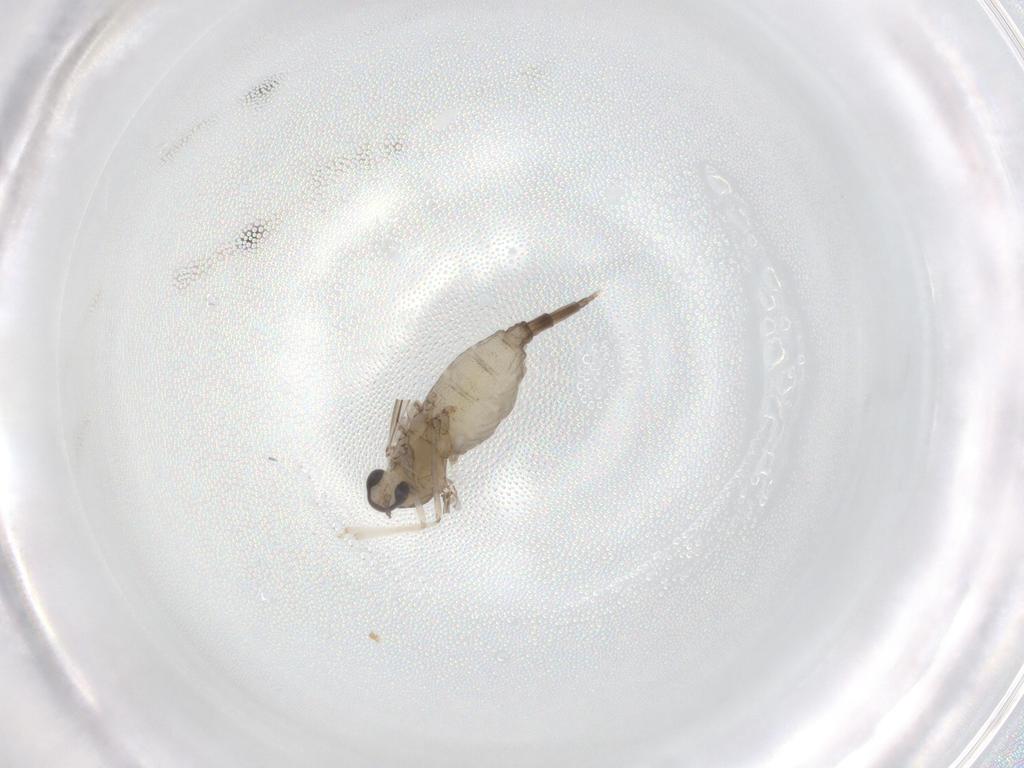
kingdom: Animalia
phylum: Arthropoda
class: Insecta
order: Diptera
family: Cecidomyiidae
